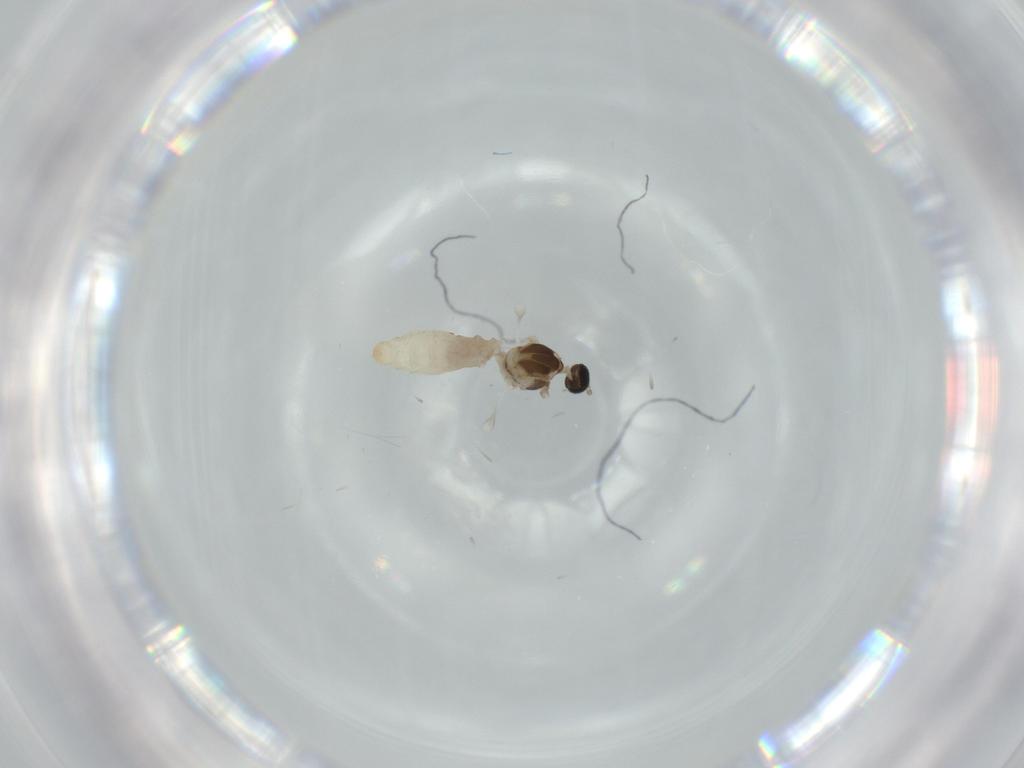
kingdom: Animalia
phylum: Arthropoda
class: Insecta
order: Diptera
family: Cecidomyiidae
